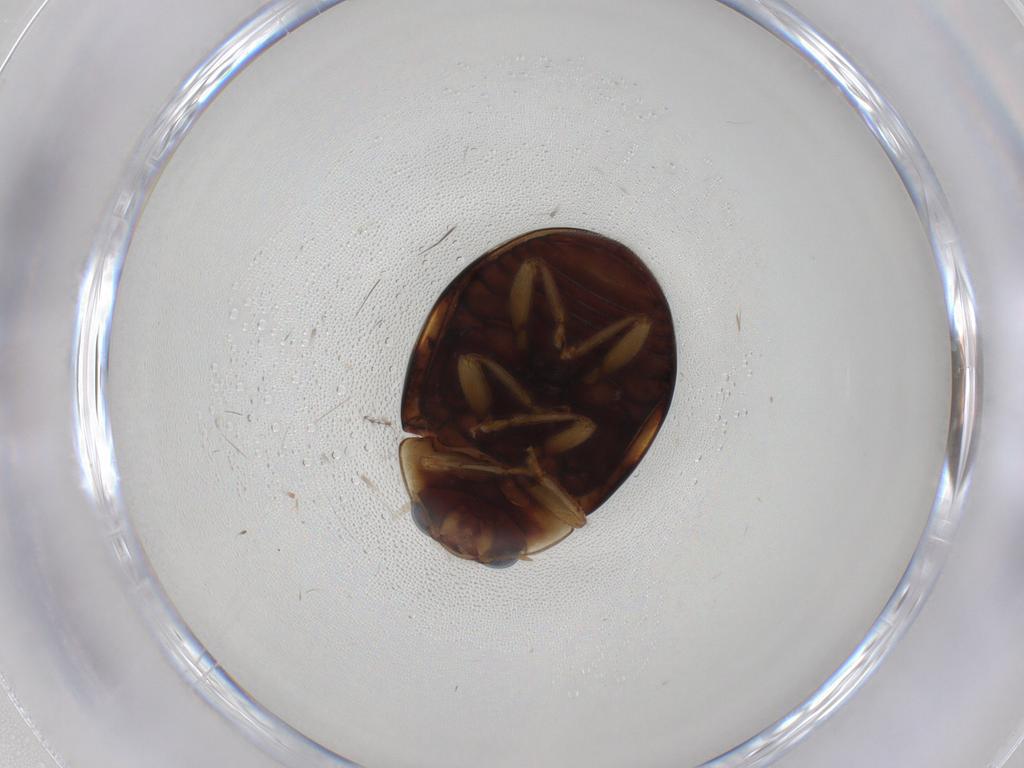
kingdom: Animalia
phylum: Arthropoda
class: Insecta
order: Coleoptera
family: Coccinellidae
